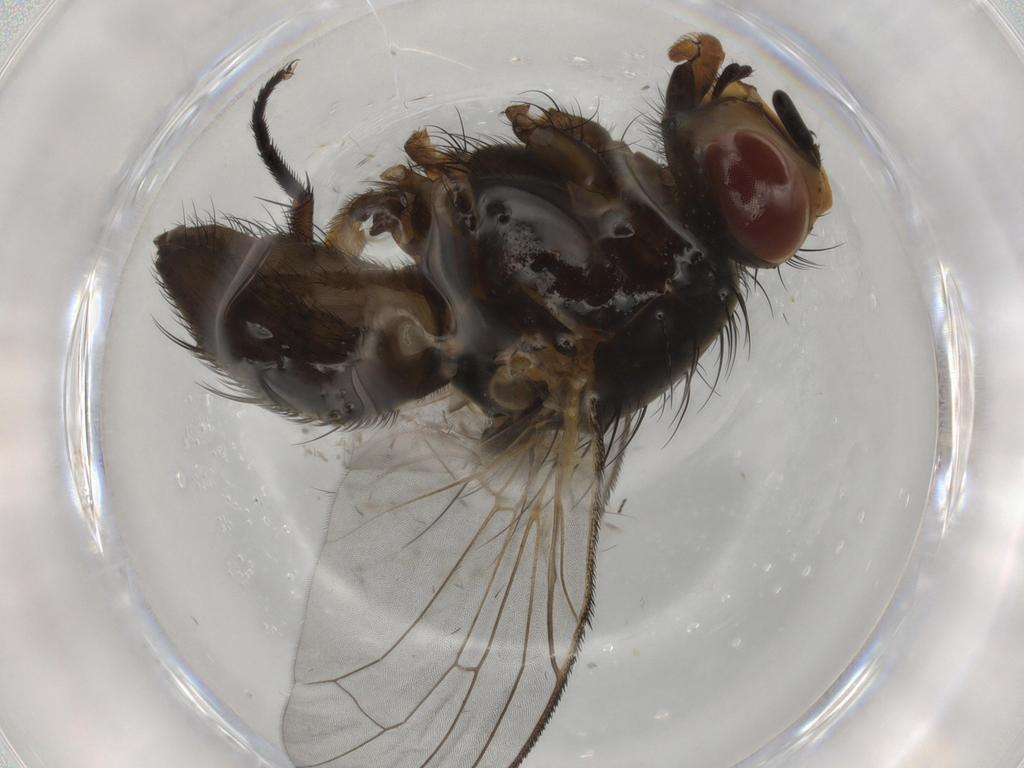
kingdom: Animalia
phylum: Arthropoda
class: Insecta
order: Diptera
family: Anthomyiidae
